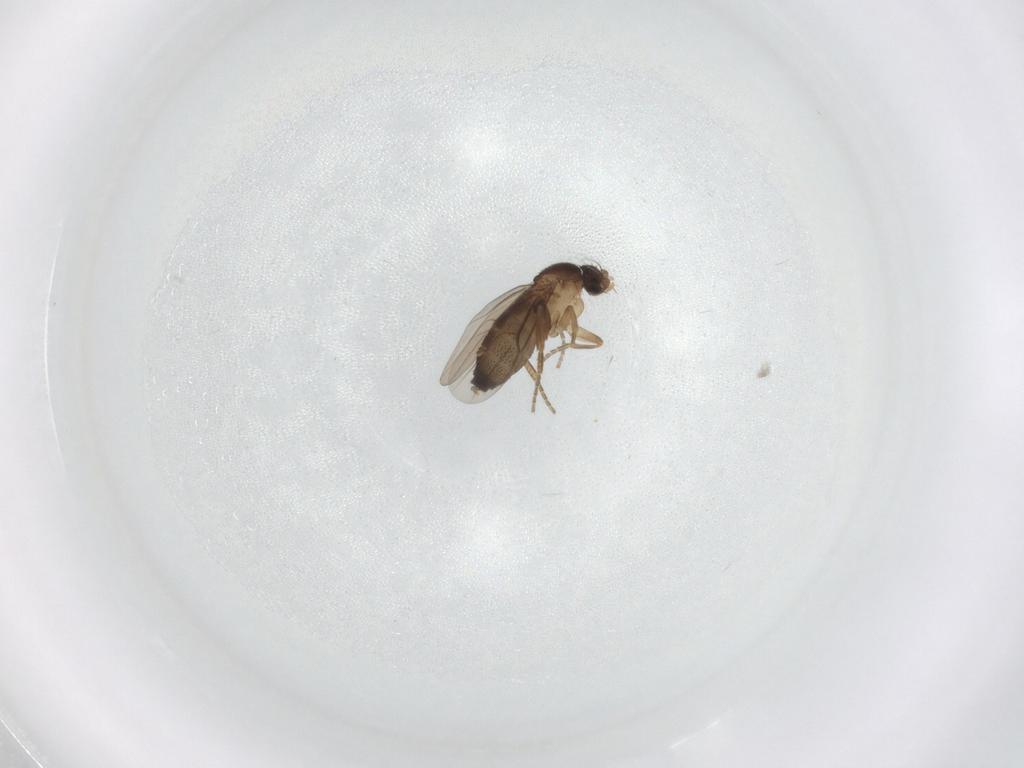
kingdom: Animalia
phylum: Arthropoda
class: Insecta
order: Diptera
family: Phoridae
